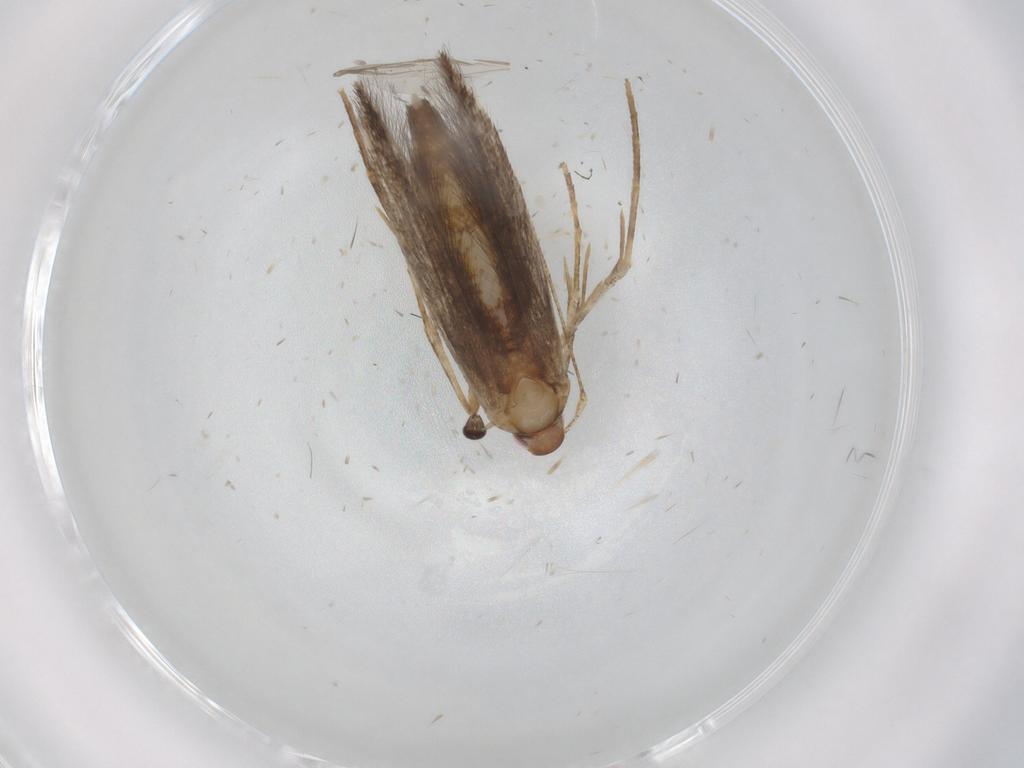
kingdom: Animalia
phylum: Arthropoda
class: Insecta
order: Lepidoptera
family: Cosmopterigidae
